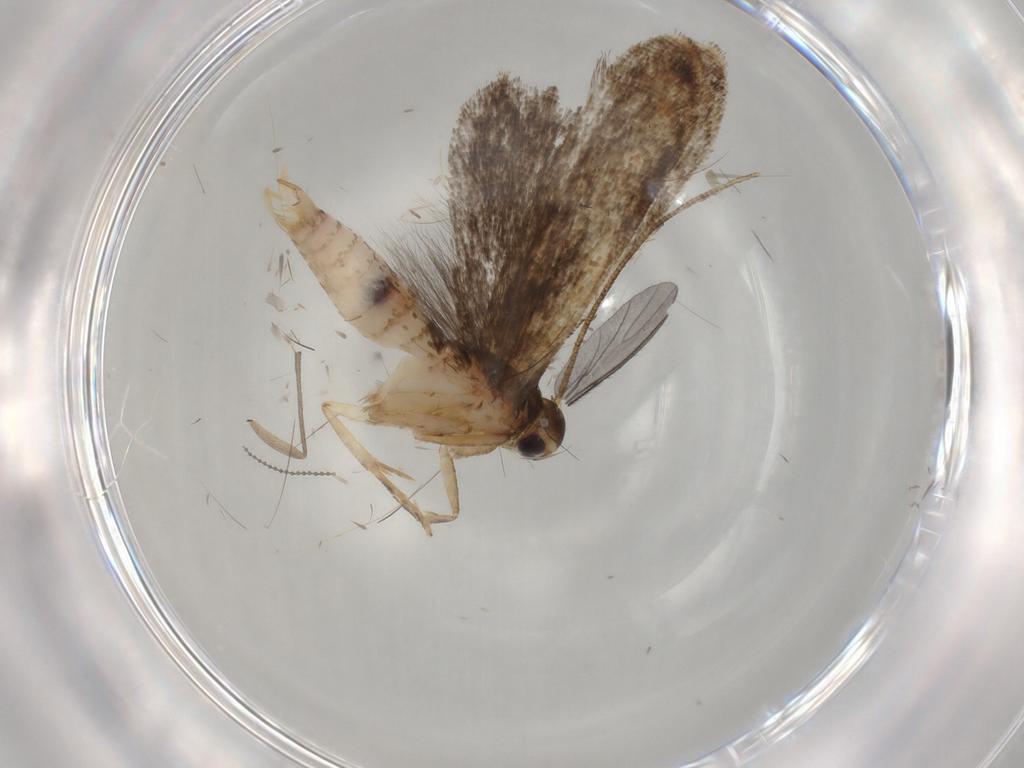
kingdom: Animalia
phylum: Arthropoda
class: Insecta
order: Lepidoptera
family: Gelechiidae
